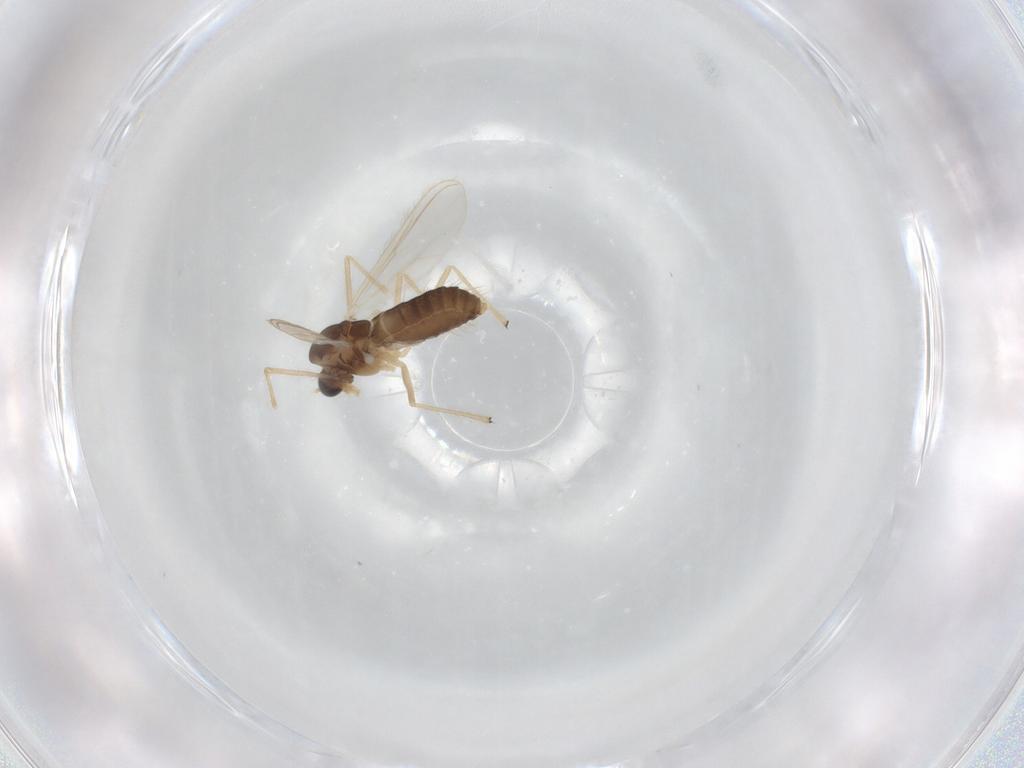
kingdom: Animalia
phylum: Arthropoda
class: Insecta
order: Diptera
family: Chironomidae
